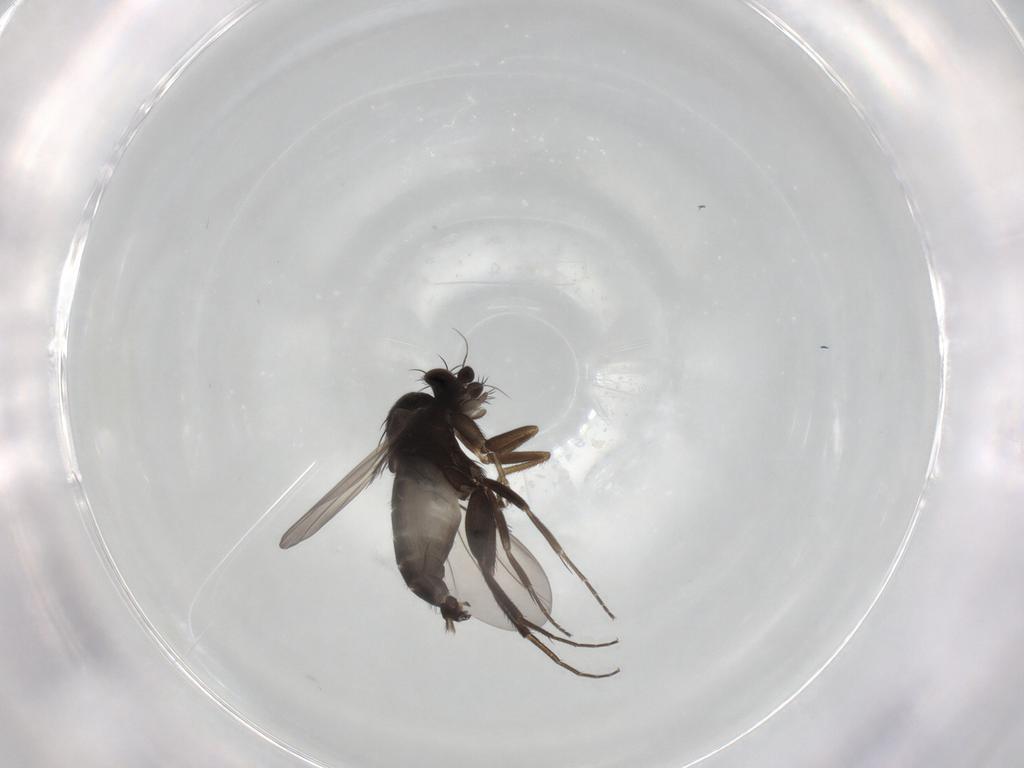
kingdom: Animalia
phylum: Arthropoda
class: Insecta
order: Diptera
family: Phoridae
